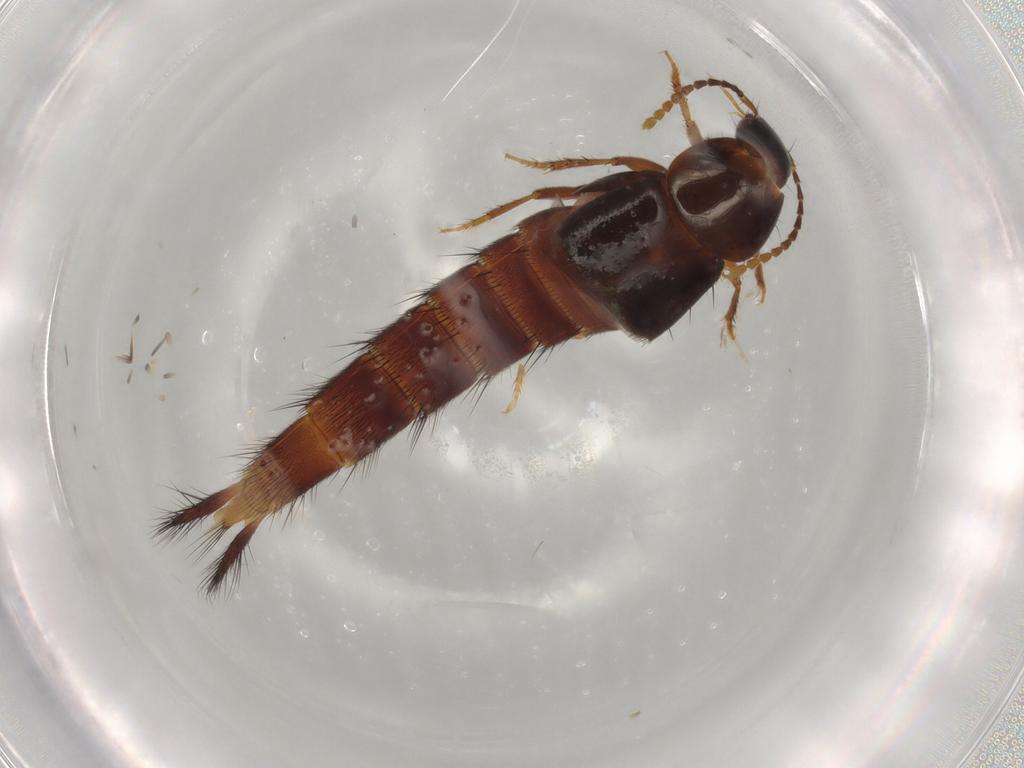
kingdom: Animalia
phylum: Arthropoda
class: Insecta
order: Coleoptera
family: Staphylinidae
